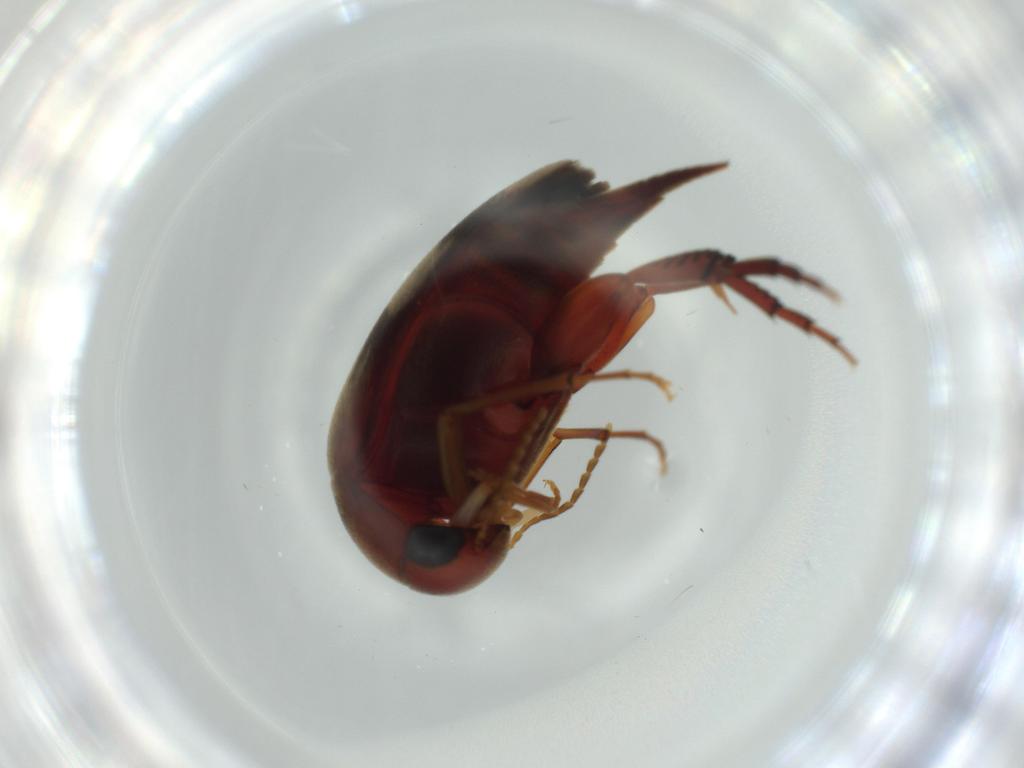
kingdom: Animalia
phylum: Arthropoda
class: Insecta
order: Coleoptera
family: Mordellidae
